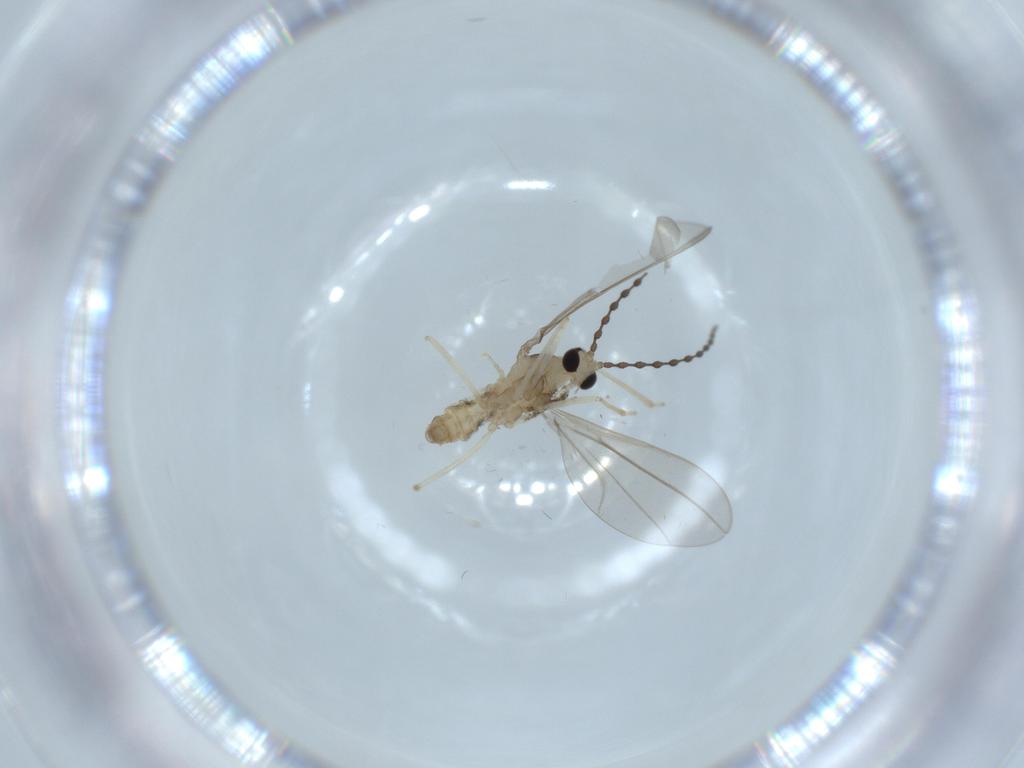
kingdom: Animalia
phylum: Arthropoda
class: Insecta
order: Diptera
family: Cecidomyiidae
